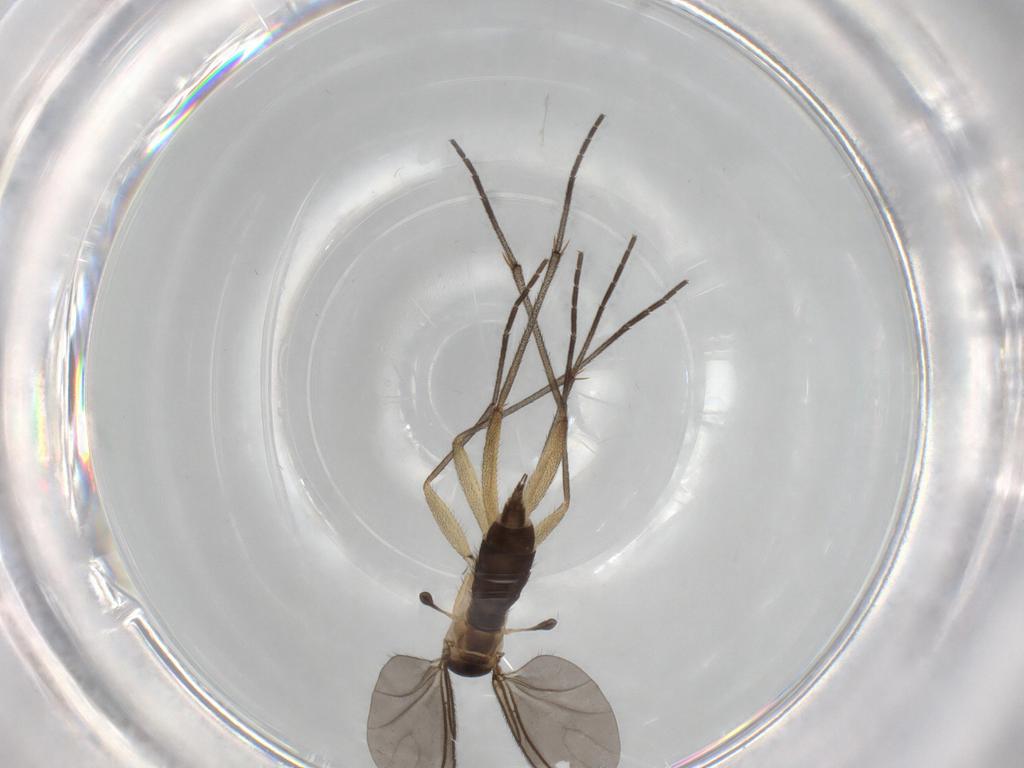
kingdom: Animalia
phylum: Arthropoda
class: Insecta
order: Diptera
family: Sciaridae
